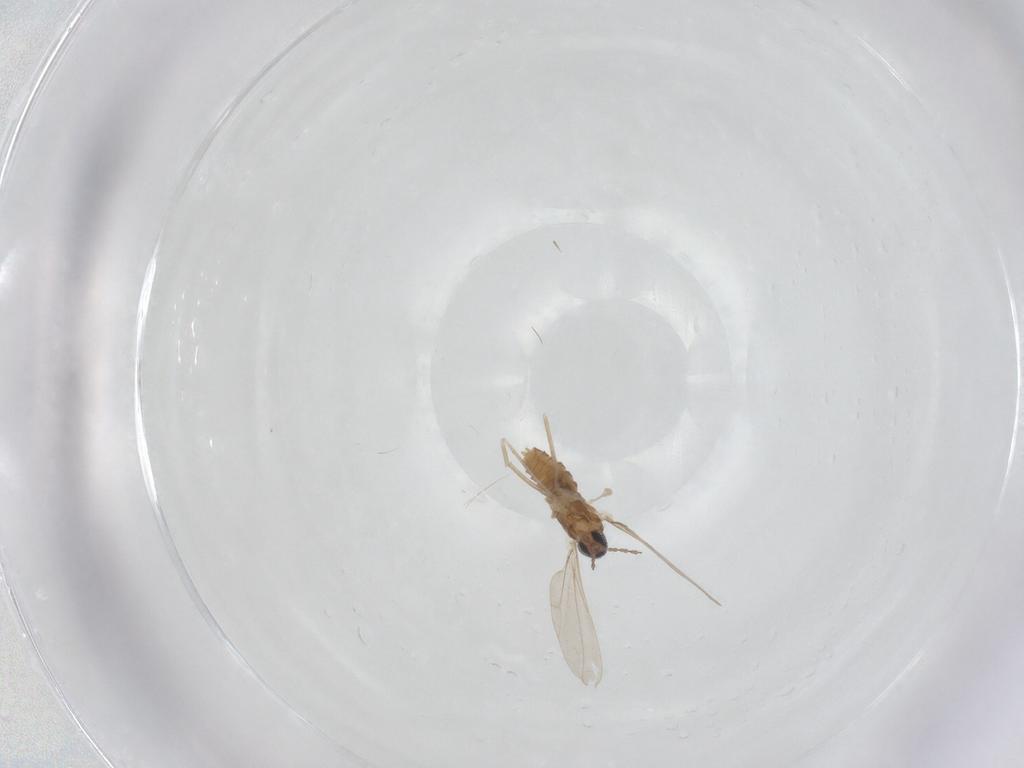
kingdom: Animalia
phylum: Arthropoda
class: Insecta
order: Diptera
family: Cecidomyiidae
